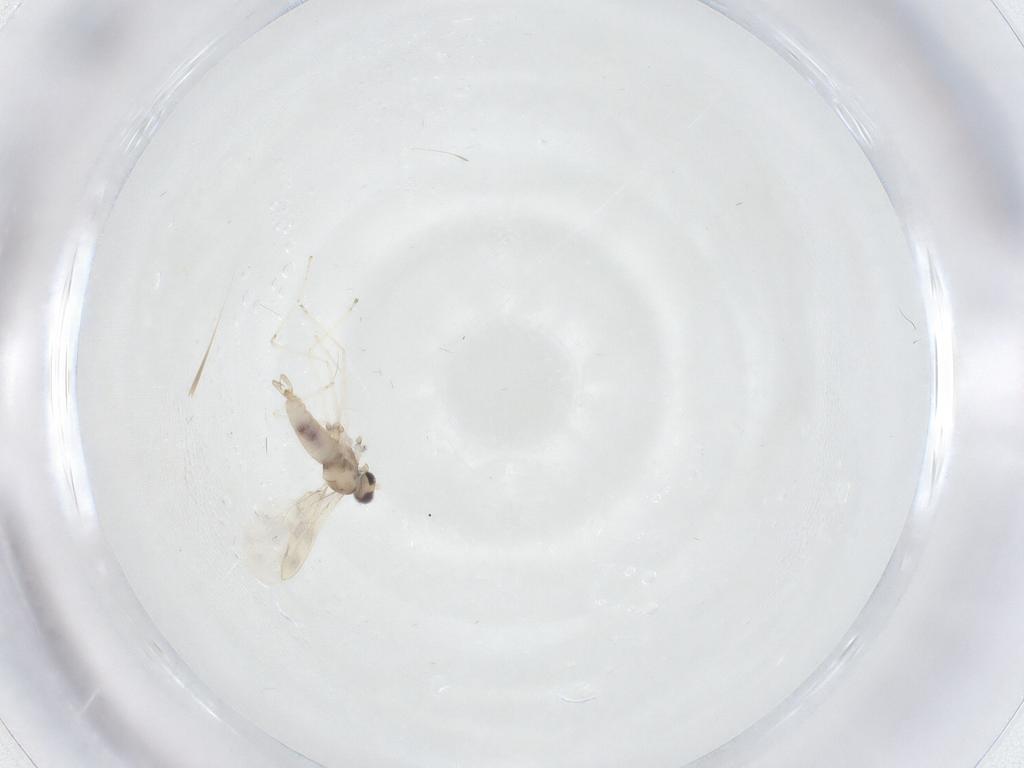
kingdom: Animalia
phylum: Arthropoda
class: Insecta
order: Diptera
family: Cecidomyiidae
